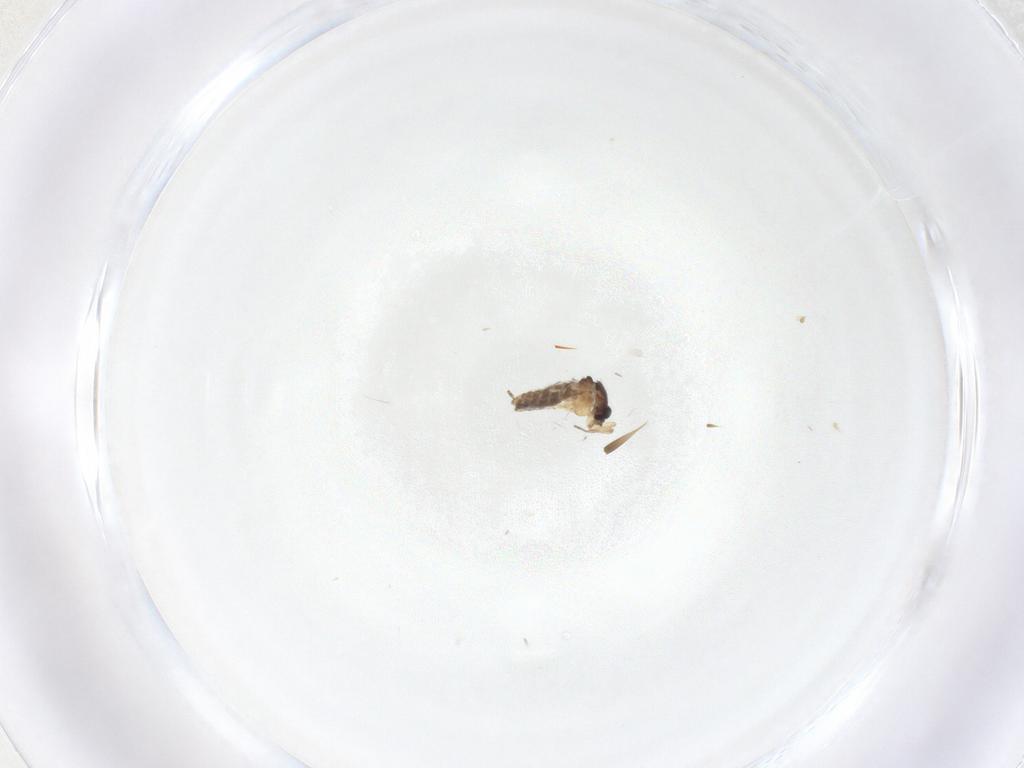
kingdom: Animalia
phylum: Arthropoda
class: Insecta
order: Diptera
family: Ceratopogonidae
